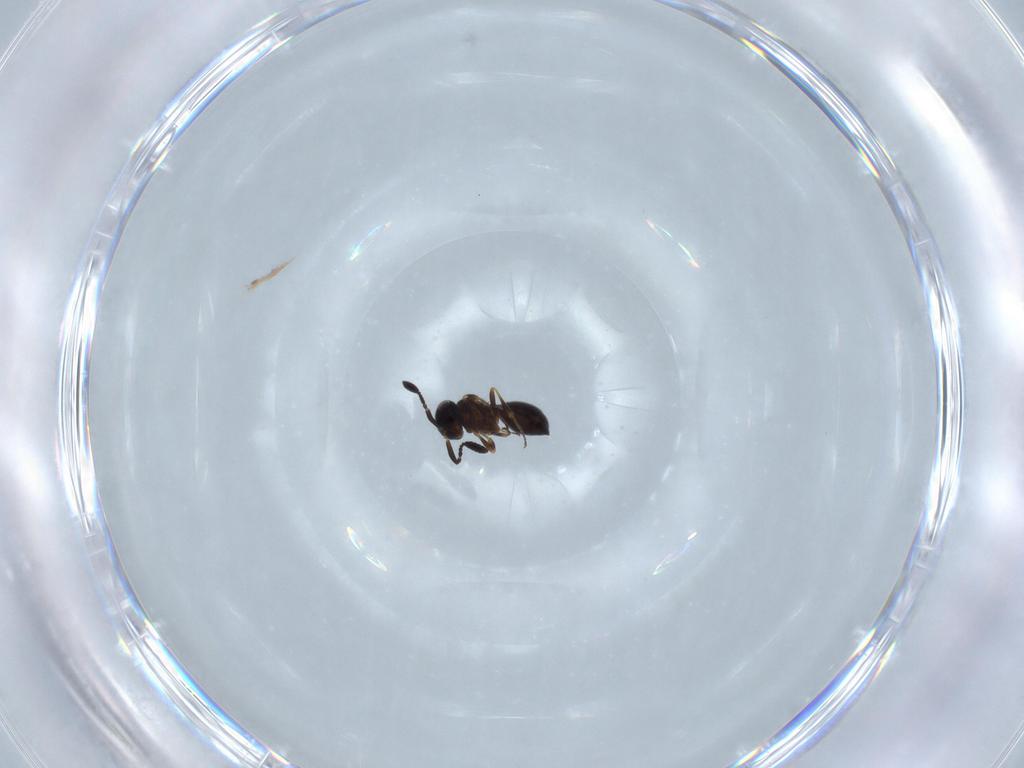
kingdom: Animalia
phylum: Arthropoda
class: Insecta
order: Hymenoptera
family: Scelionidae
